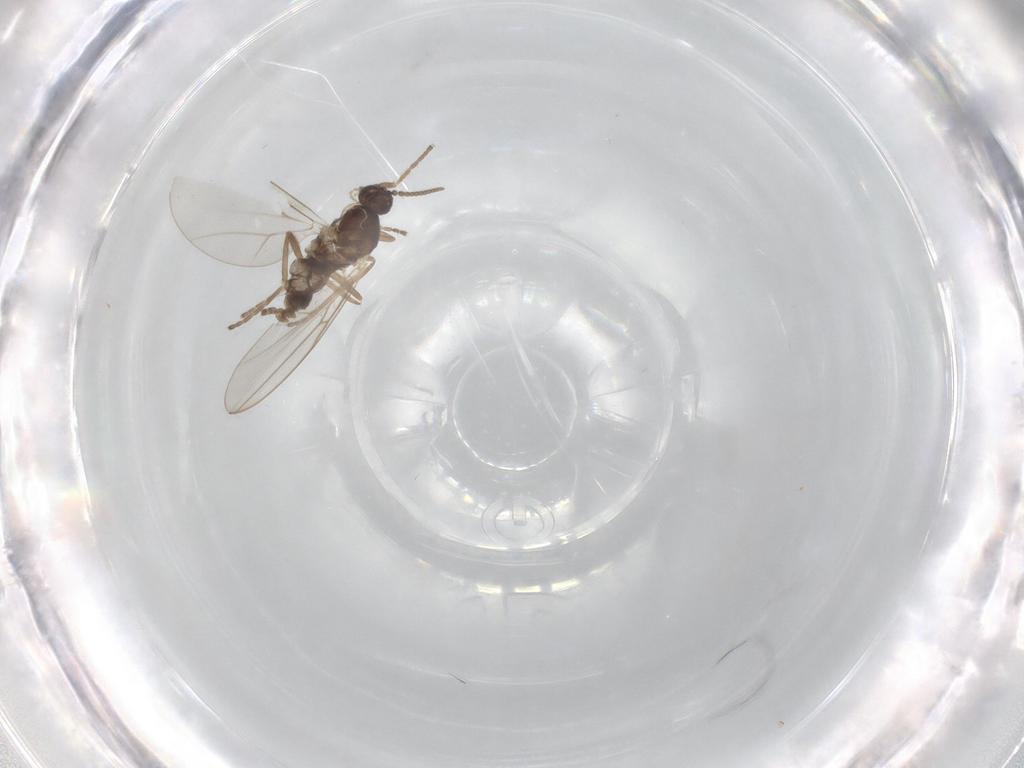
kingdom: Animalia
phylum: Arthropoda
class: Insecta
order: Diptera
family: Cecidomyiidae
